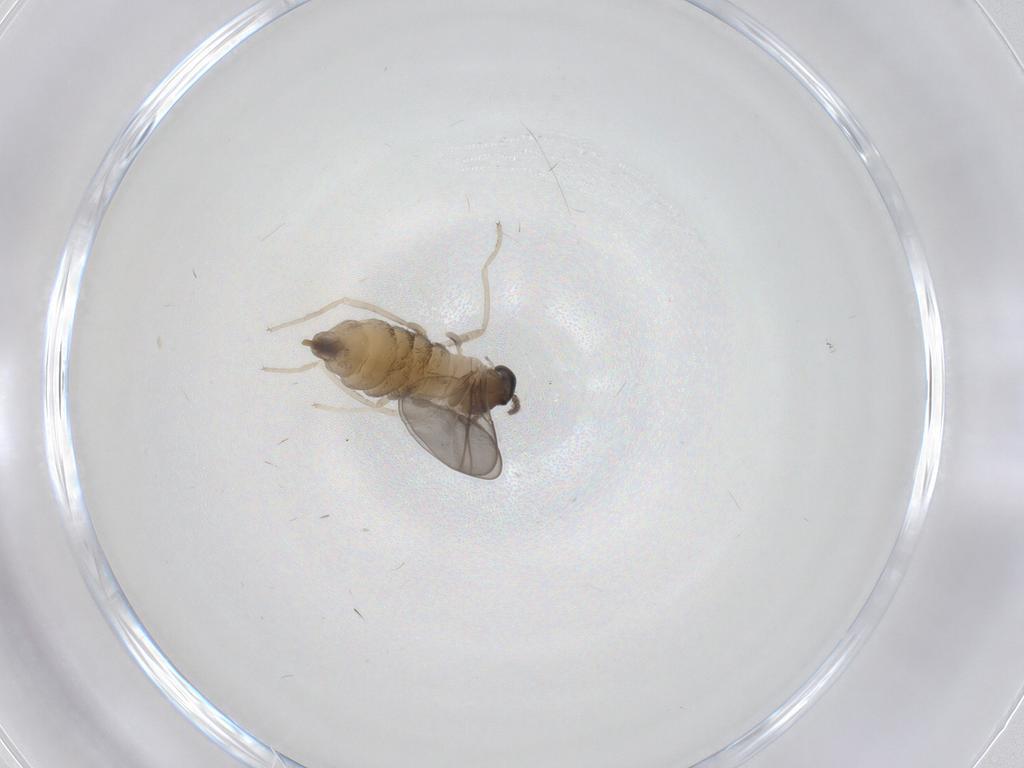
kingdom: Animalia
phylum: Arthropoda
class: Insecta
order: Diptera
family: Cecidomyiidae
